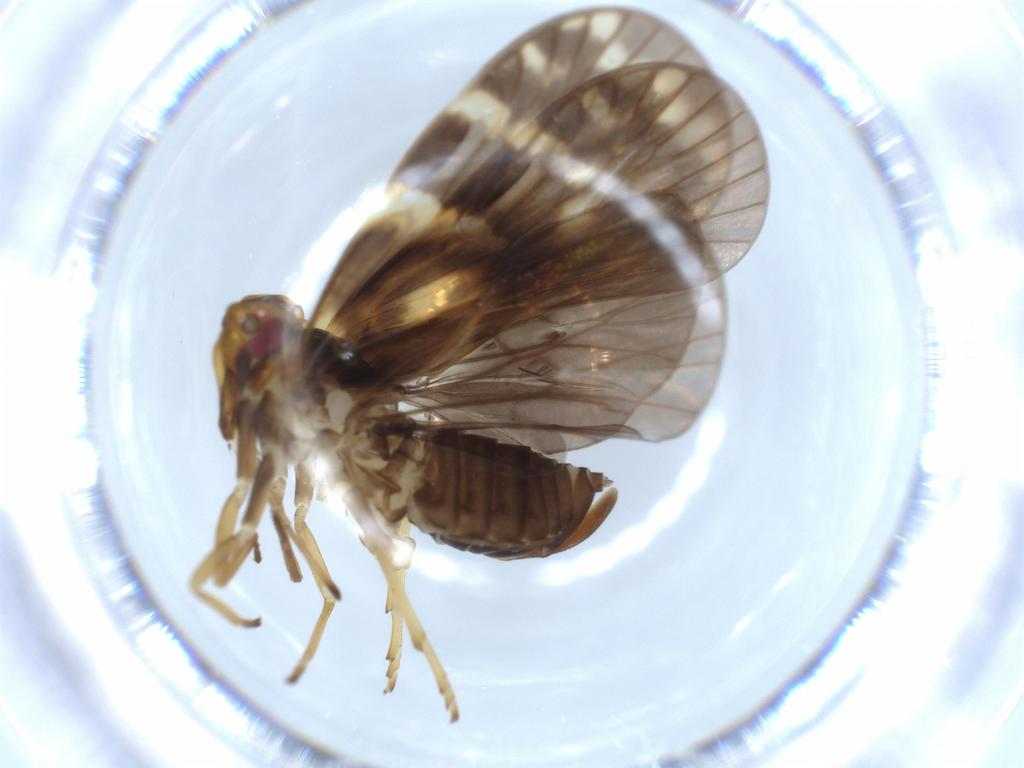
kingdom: Animalia
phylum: Arthropoda
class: Insecta
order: Hemiptera
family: Cixiidae
